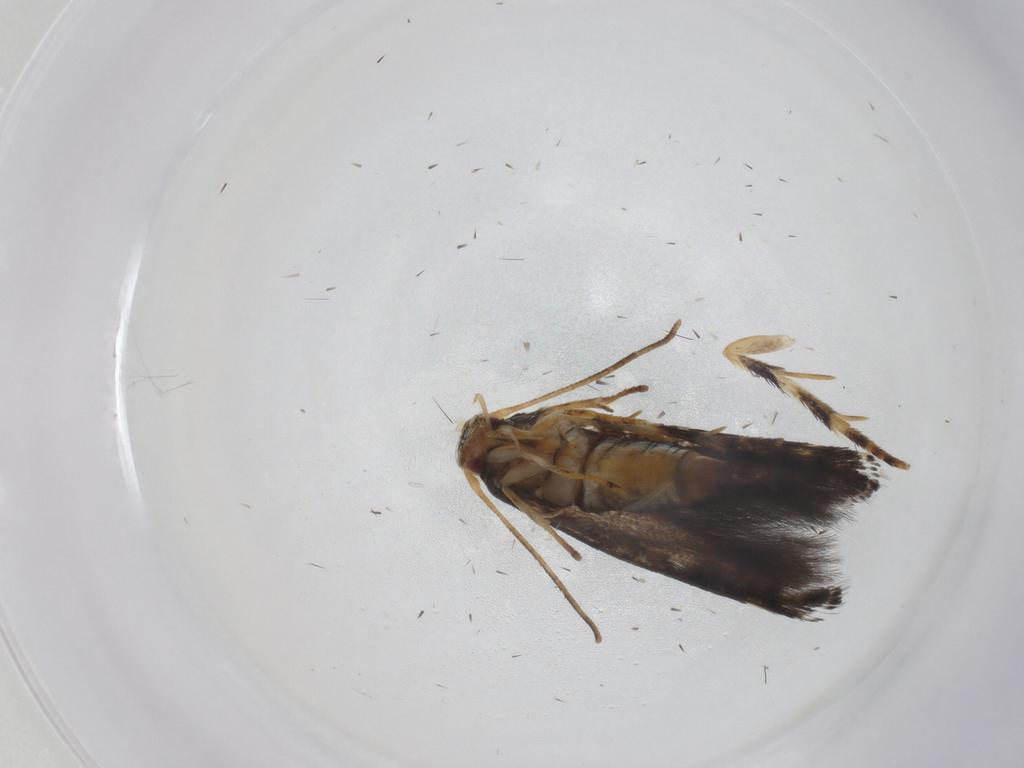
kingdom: Animalia
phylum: Arthropoda
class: Insecta
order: Lepidoptera
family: Momphidae
